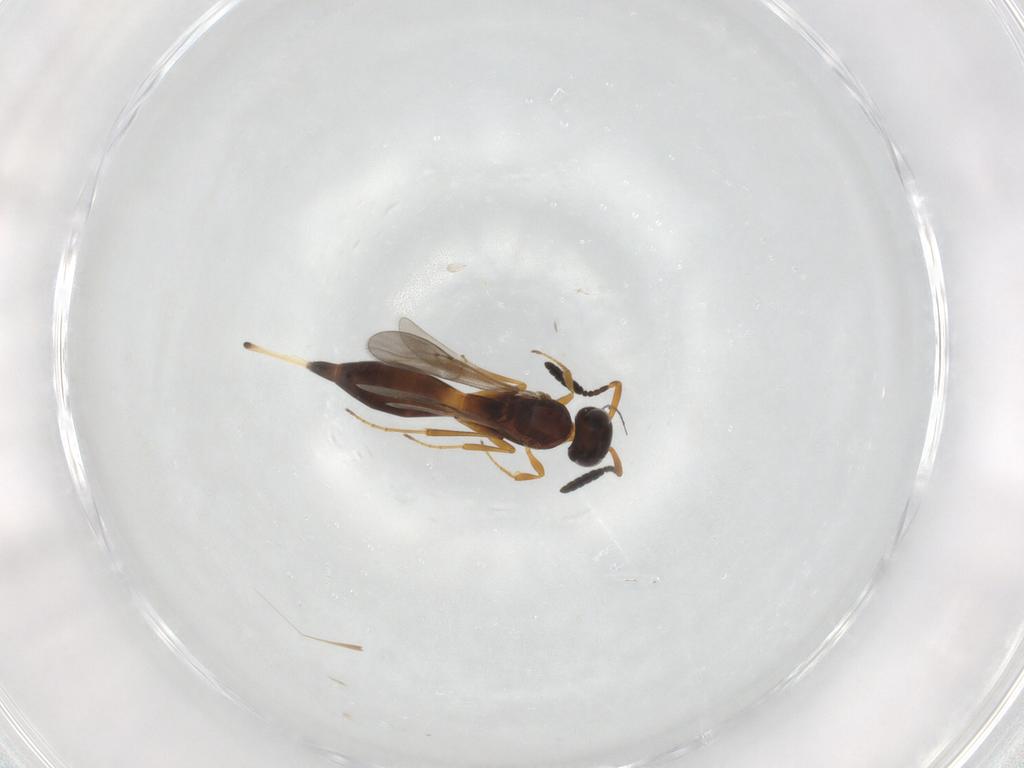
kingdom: Animalia
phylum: Arthropoda
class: Insecta
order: Hymenoptera
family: Scelionidae
